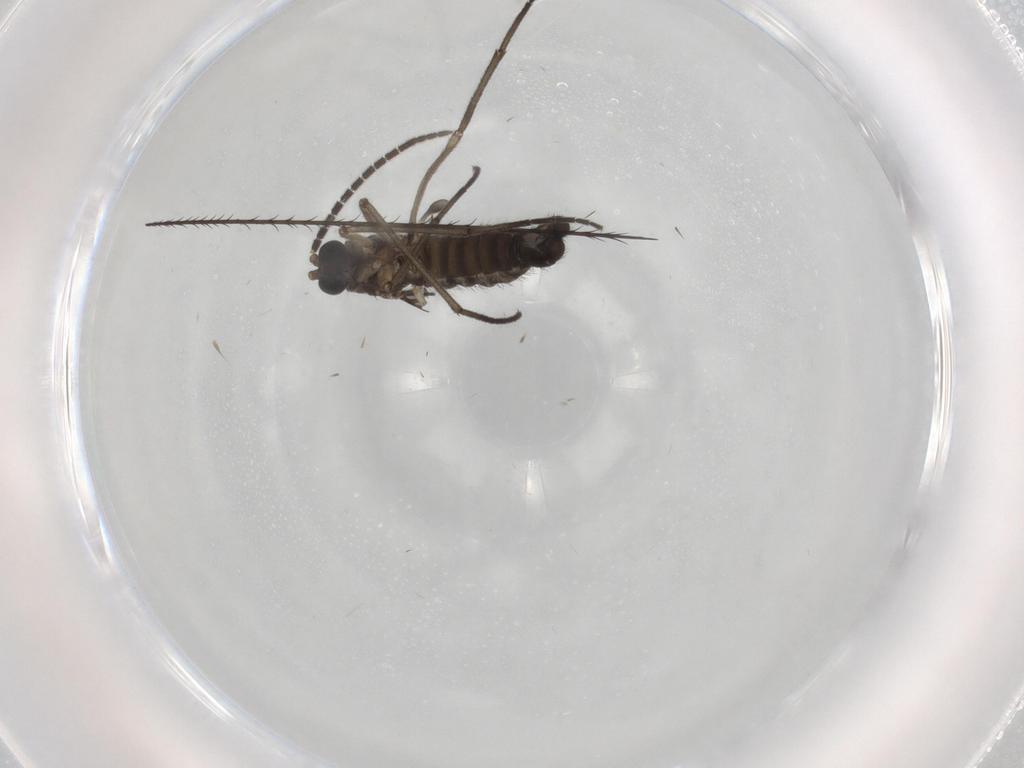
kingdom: Animalia
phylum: Arthropoda
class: Insecta
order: Diptera
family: Sciaridae
